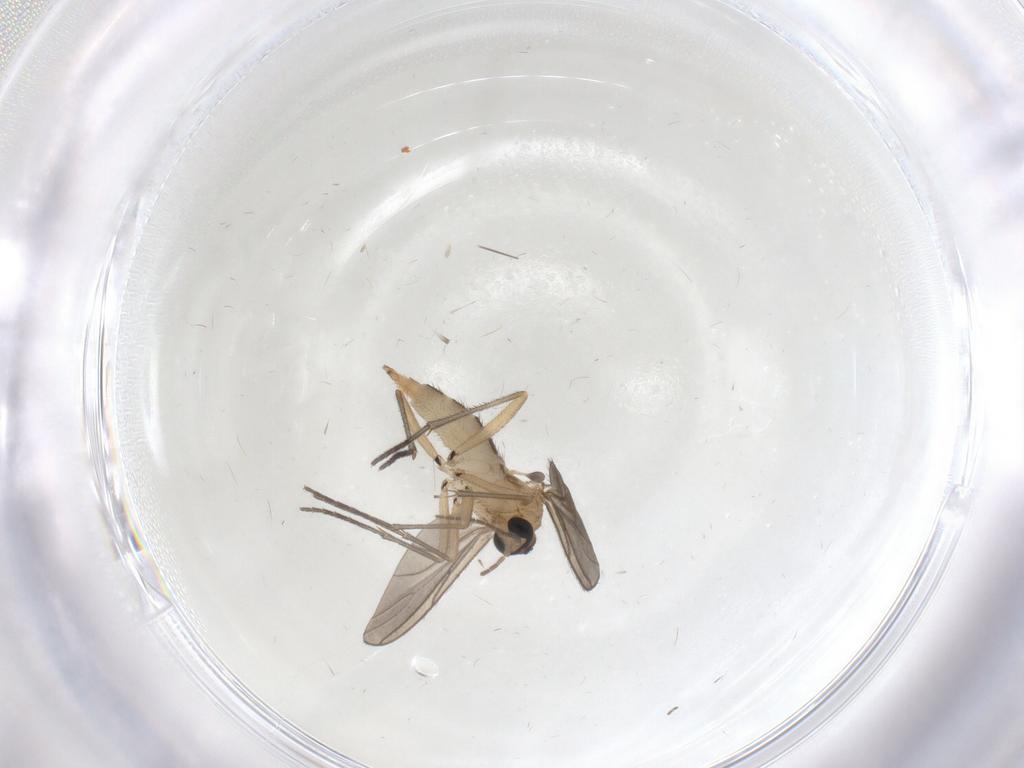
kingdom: Animalia
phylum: Arthropoda
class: Insecta
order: Diptera
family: Sciaridae
